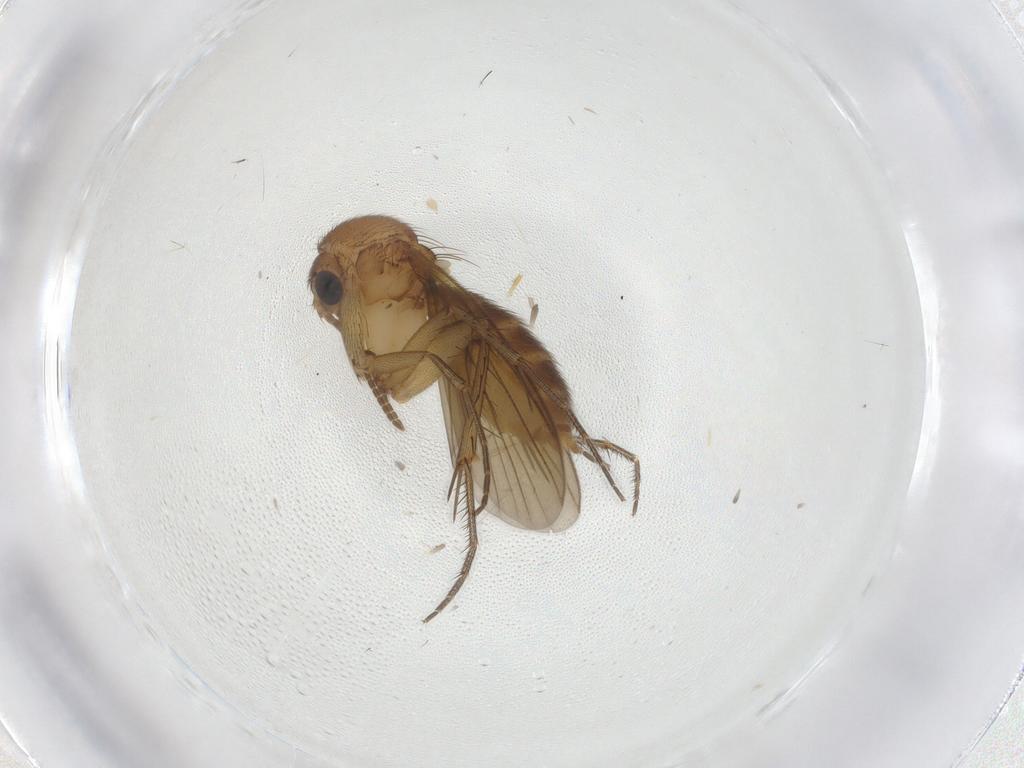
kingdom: Animalia
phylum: Arthropoda
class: Insecta
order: Diptera
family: Mycetophilidae
